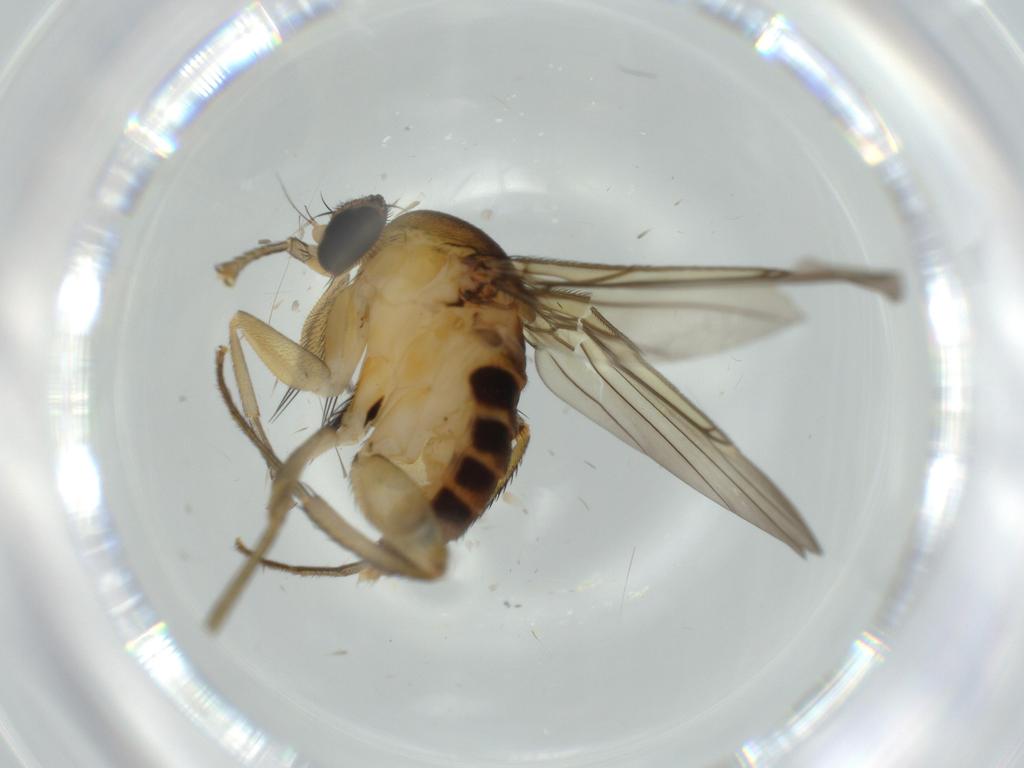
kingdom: Animalia
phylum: Arthropoda
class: Insecta
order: Diptera
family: Phoridae
